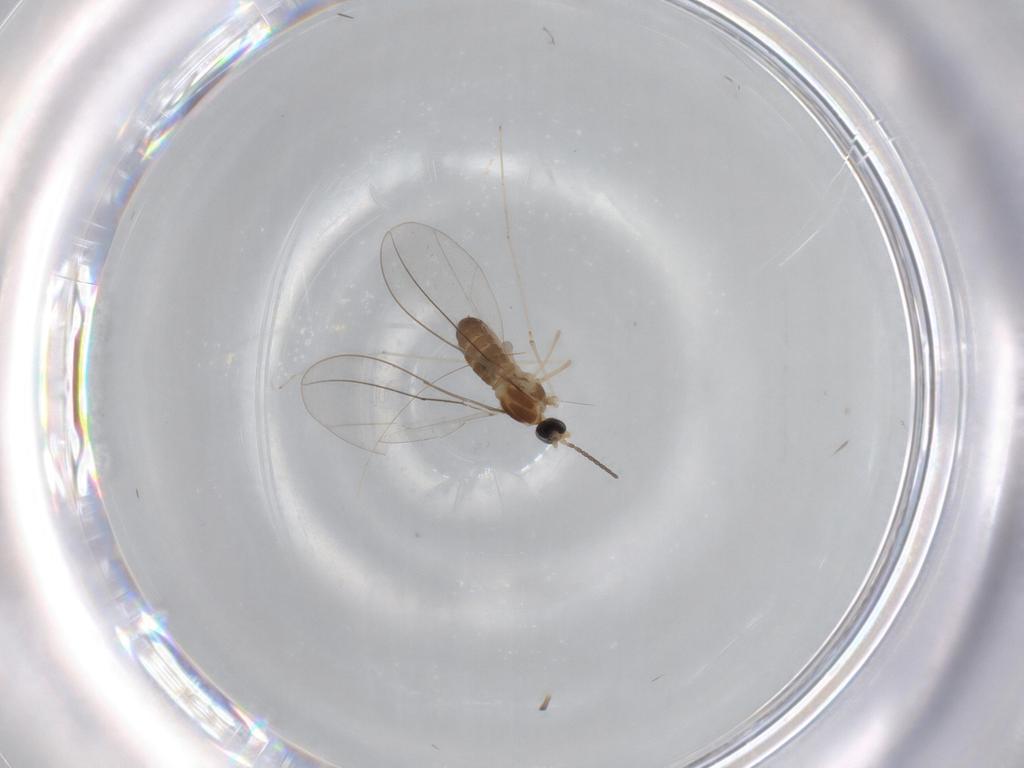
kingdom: Animalia
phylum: Arthropoda
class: Insecta
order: Diptera
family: Cecidomyiidae
